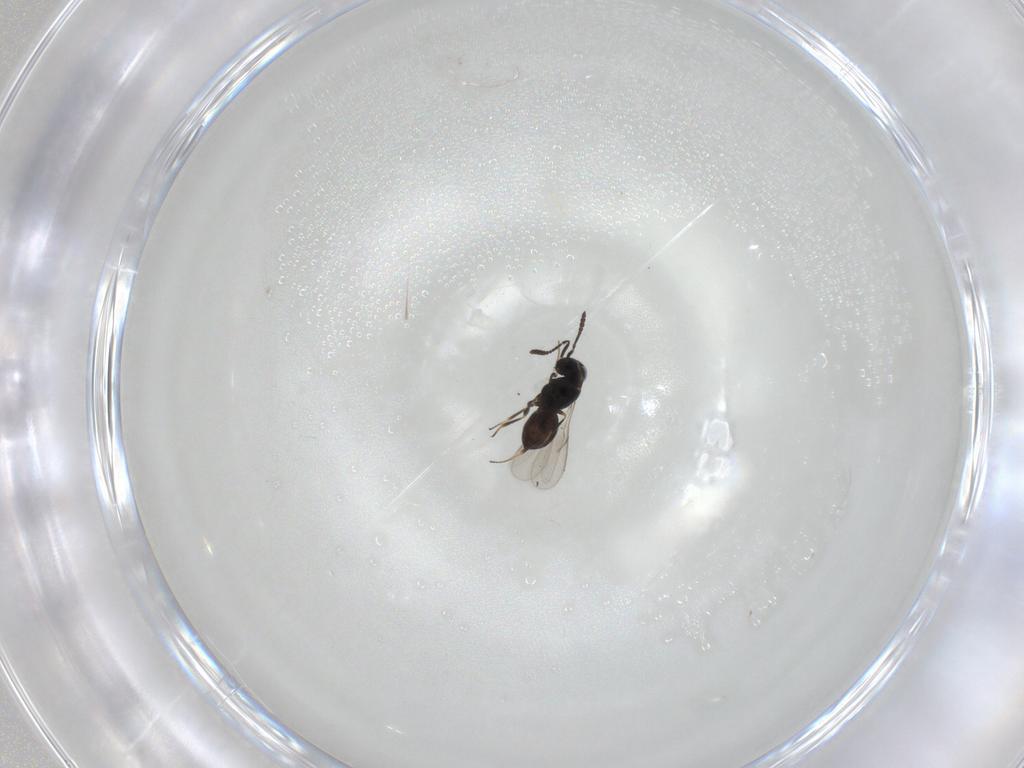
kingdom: Animalia
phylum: Arthropoda
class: Insecta
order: Hymenoptera
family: Scelionidae
